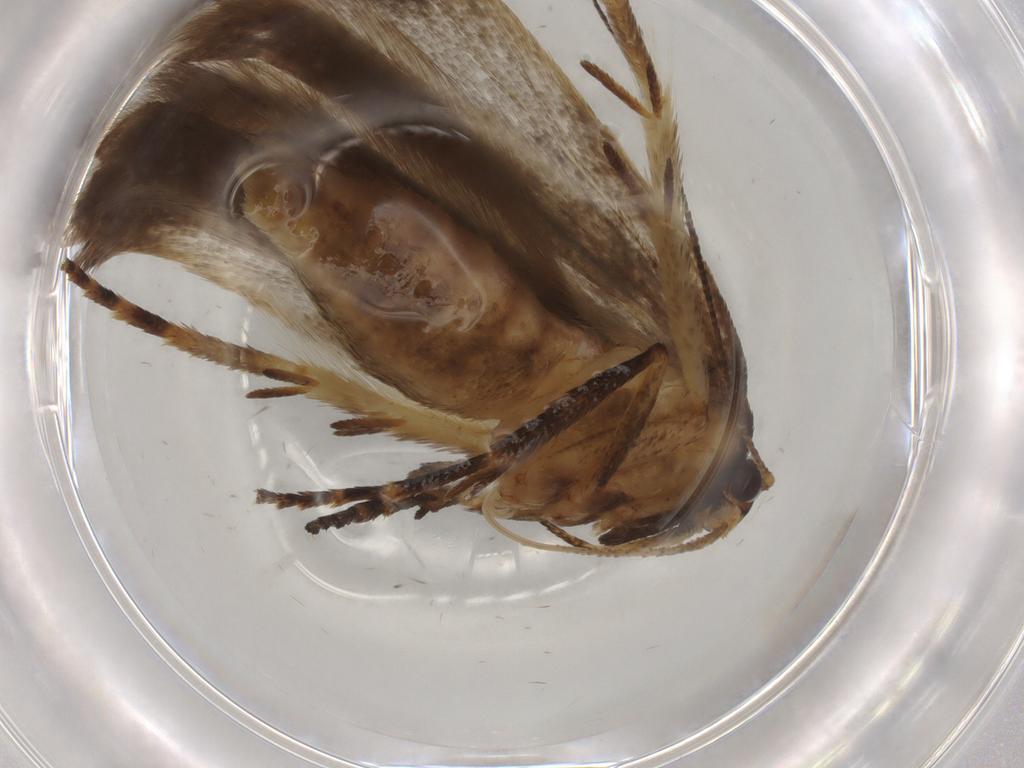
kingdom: Animalia
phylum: Arthropoda
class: Insecta
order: Lepidoptera
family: Gelechiidae
